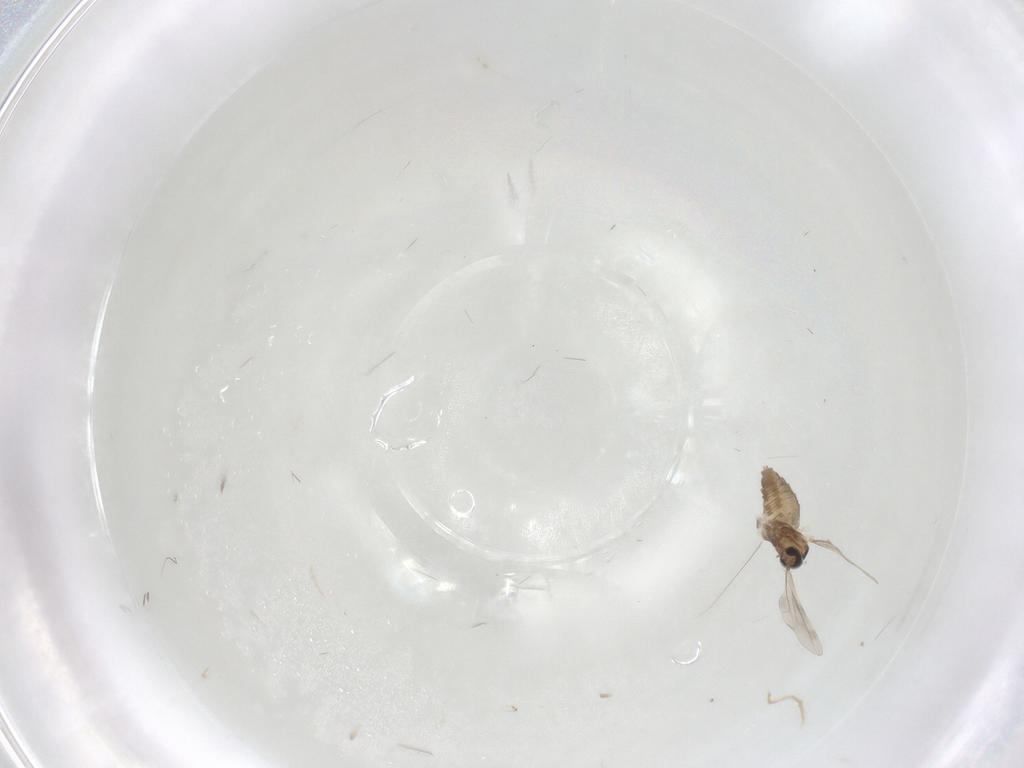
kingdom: Animalia
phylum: Arthropoda
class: Insecta
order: Diptera
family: Cecidomyiidae
